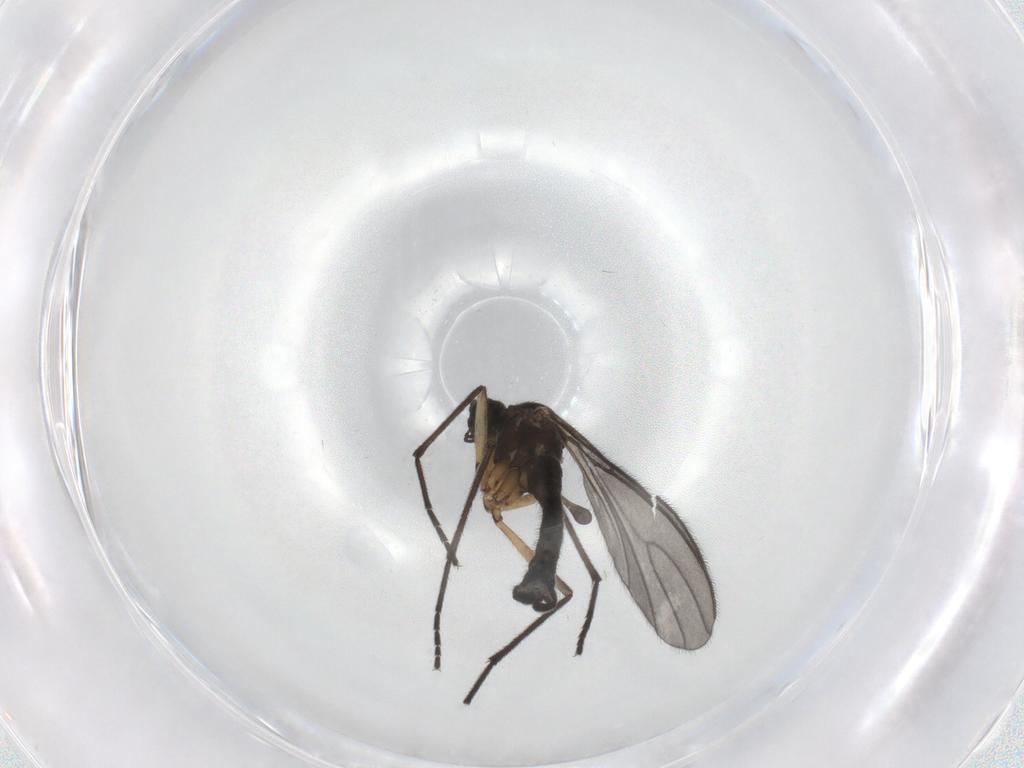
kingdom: Animalia
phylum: Arthropoda
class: Insecta
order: Diptera
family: Sciaridae
